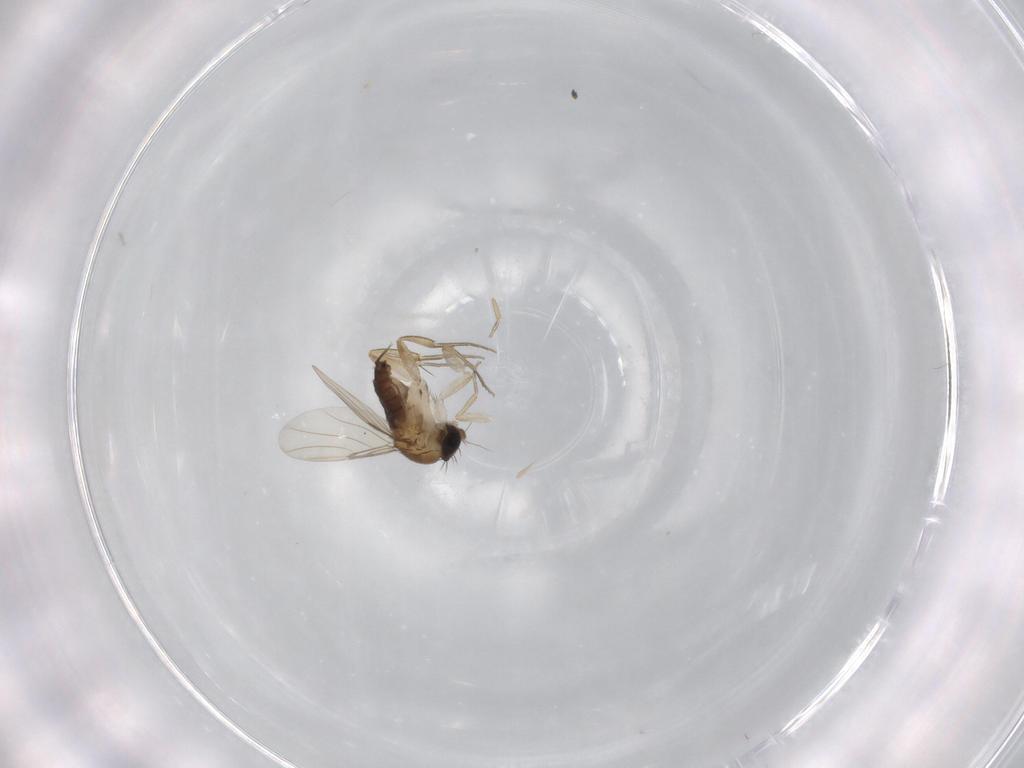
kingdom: Animalia
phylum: Arthropoda
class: Insecta
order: Diptera
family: Phoridae
